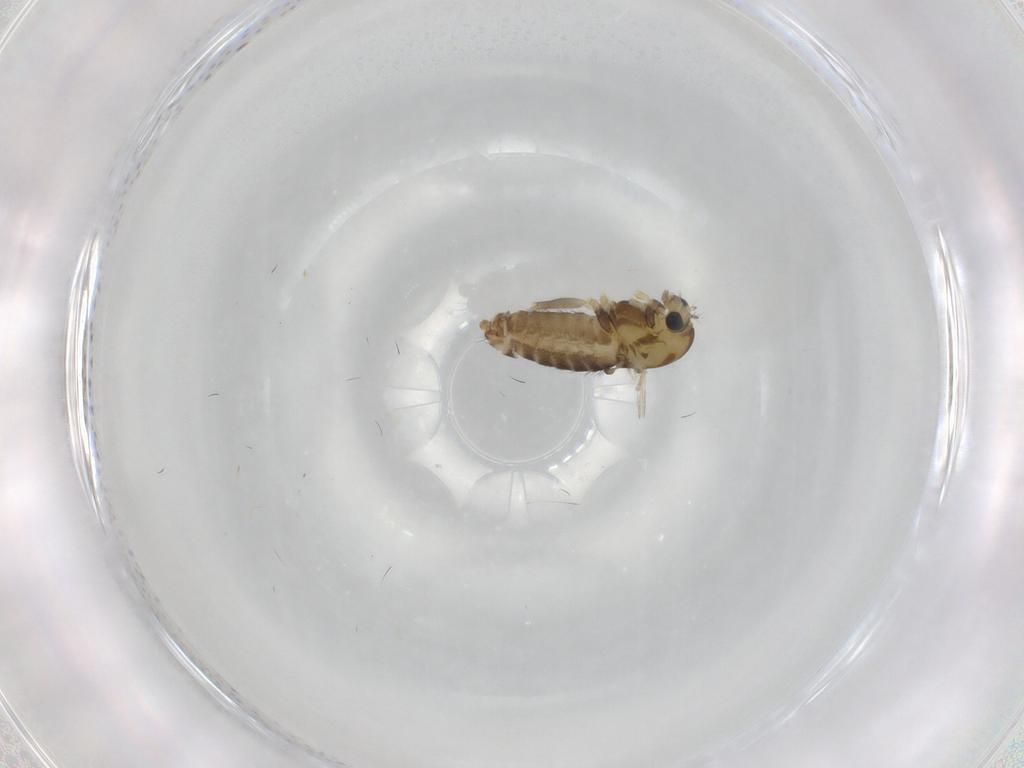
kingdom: Animalia
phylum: Arthropoda
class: Insecta
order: Diptera
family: Chironomidae
